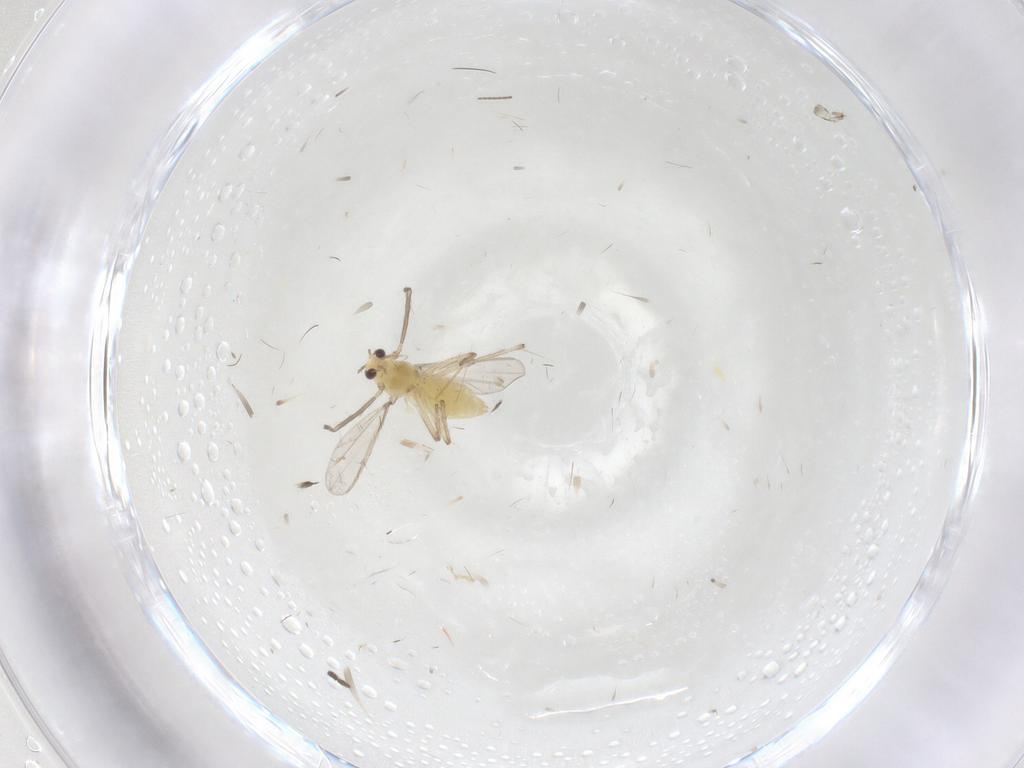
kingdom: Animalia
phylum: Arthropoda
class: Insecta
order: Diptera
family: Chironomidae
